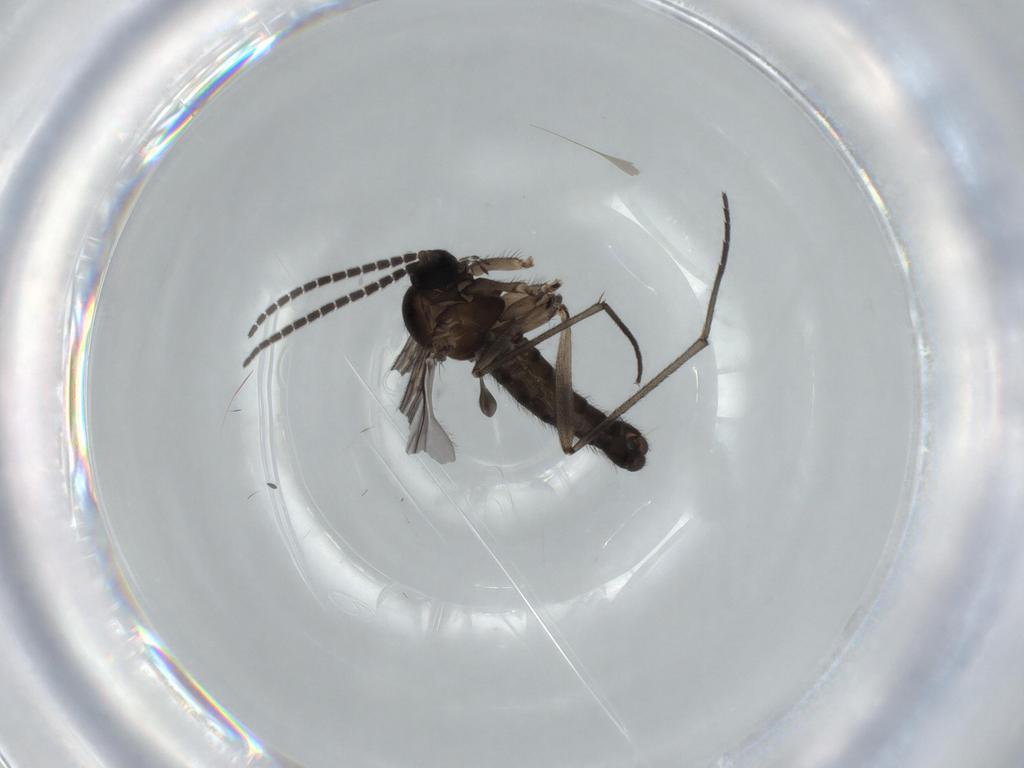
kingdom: Animalia
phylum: Arthropoda
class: Insecta
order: Diptera
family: Sciaridae
